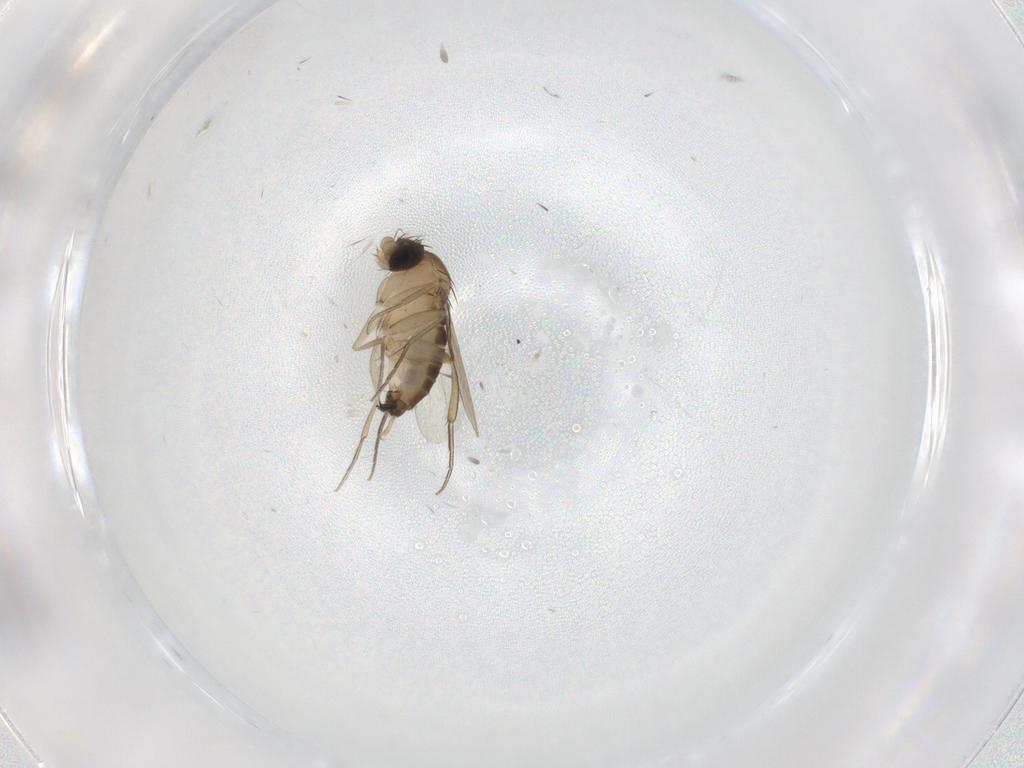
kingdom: Animalia
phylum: Arthropoda
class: Insecta
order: Diptera
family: Phoridae
